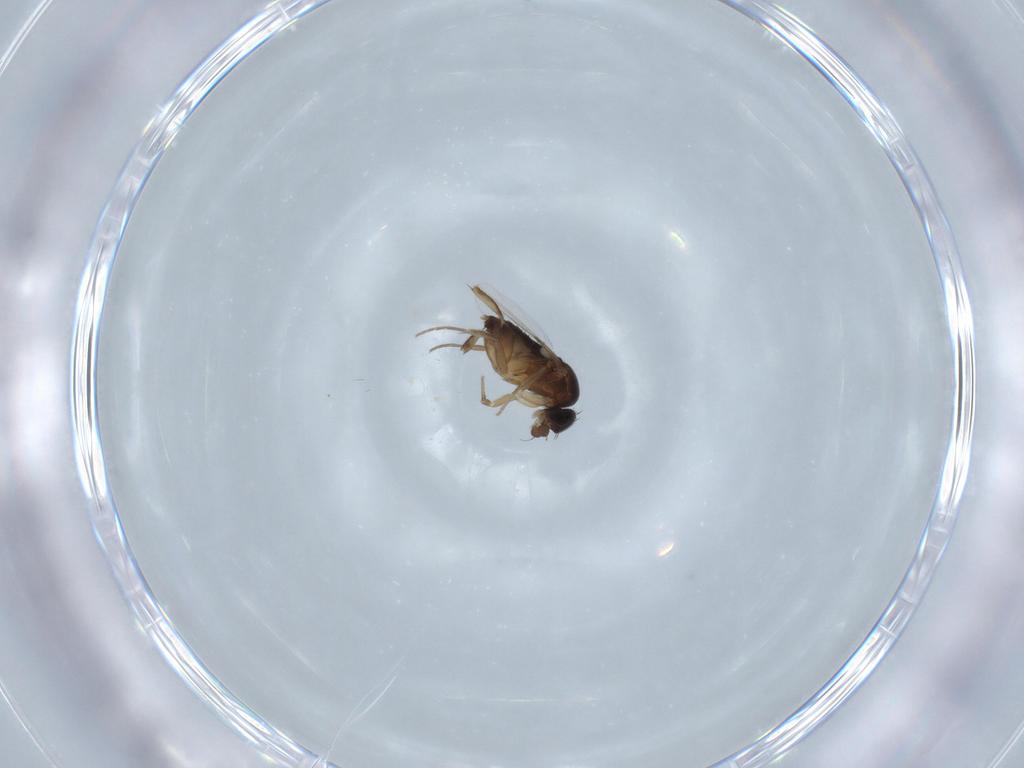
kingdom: Animalia
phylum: Arthropoda
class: Insecta
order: Diptera
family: Phoridae
